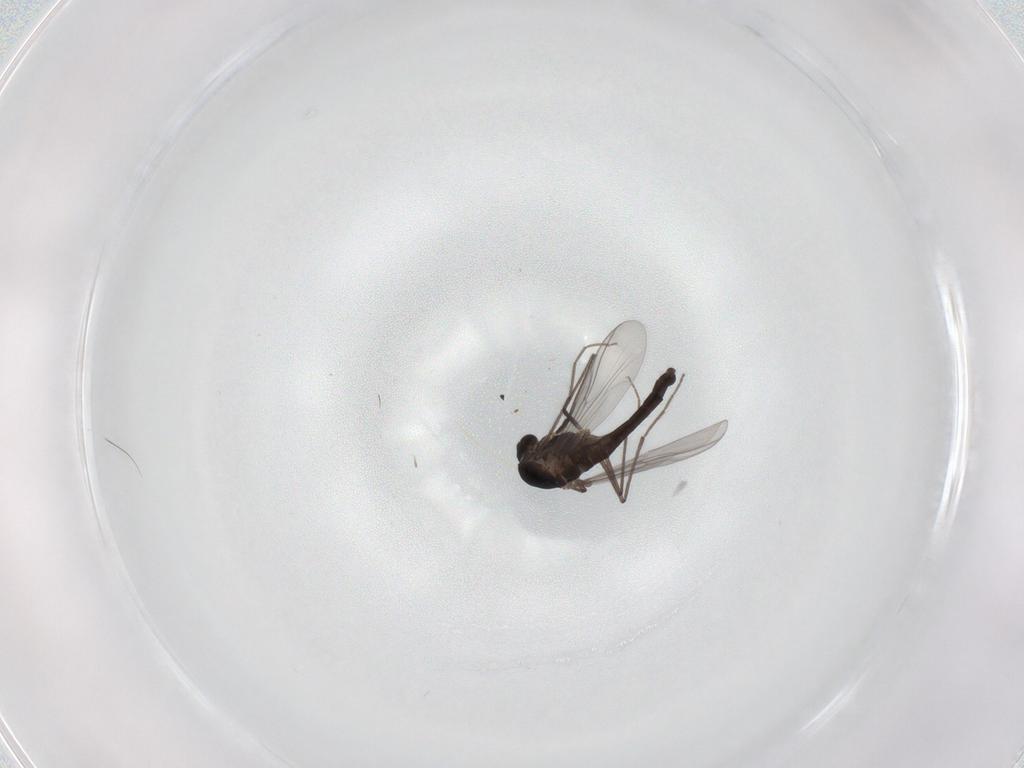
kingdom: Animalia
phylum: Arthropoda
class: Insecta
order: Diptera
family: Chironomidae
